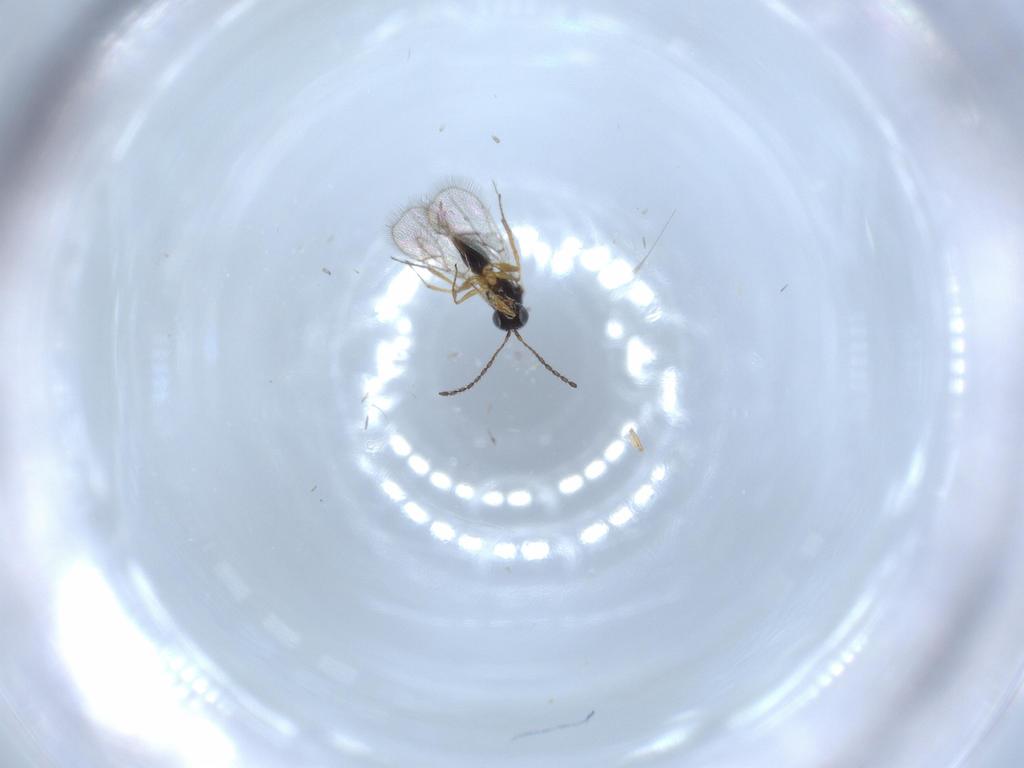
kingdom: Animalia
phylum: Arthropoda
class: Insecta
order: Hymenoptera
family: Figitidae
